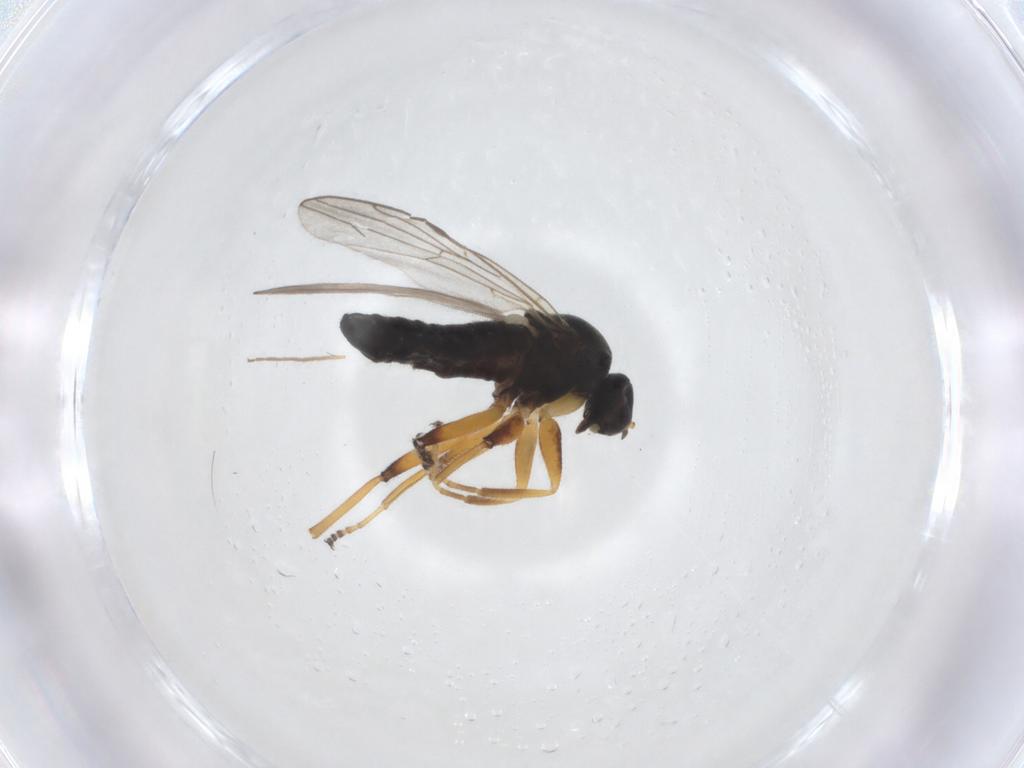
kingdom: Animalia
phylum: Arthropoda
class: Insecta
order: Diptera
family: Hybotidae
